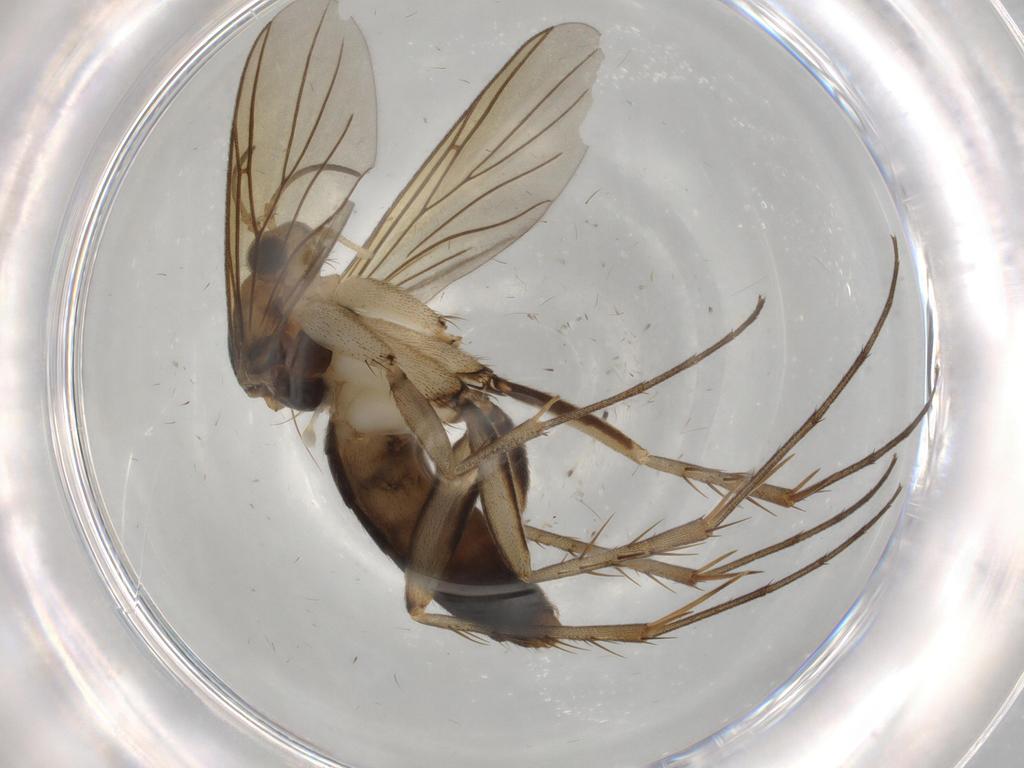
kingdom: Animalia
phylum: Arthropoda
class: Insecta
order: Diptera
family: Mycetophilidae
